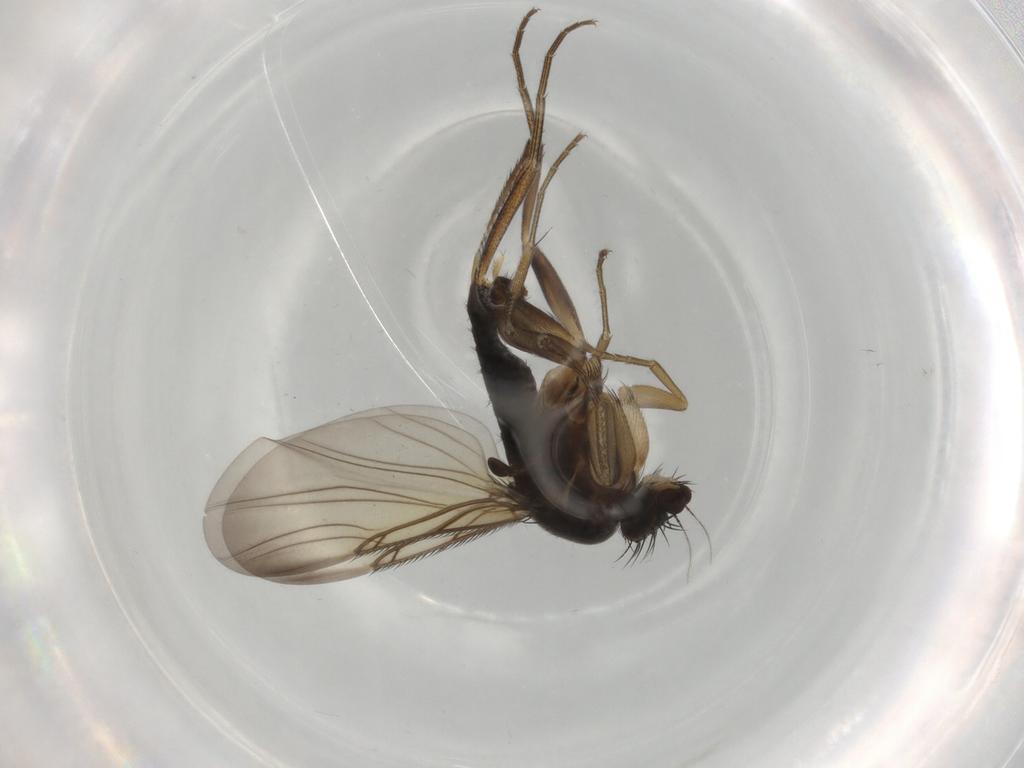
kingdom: Animalia
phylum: Arthropoda
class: Insecta
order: Diptera
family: Phoridae
